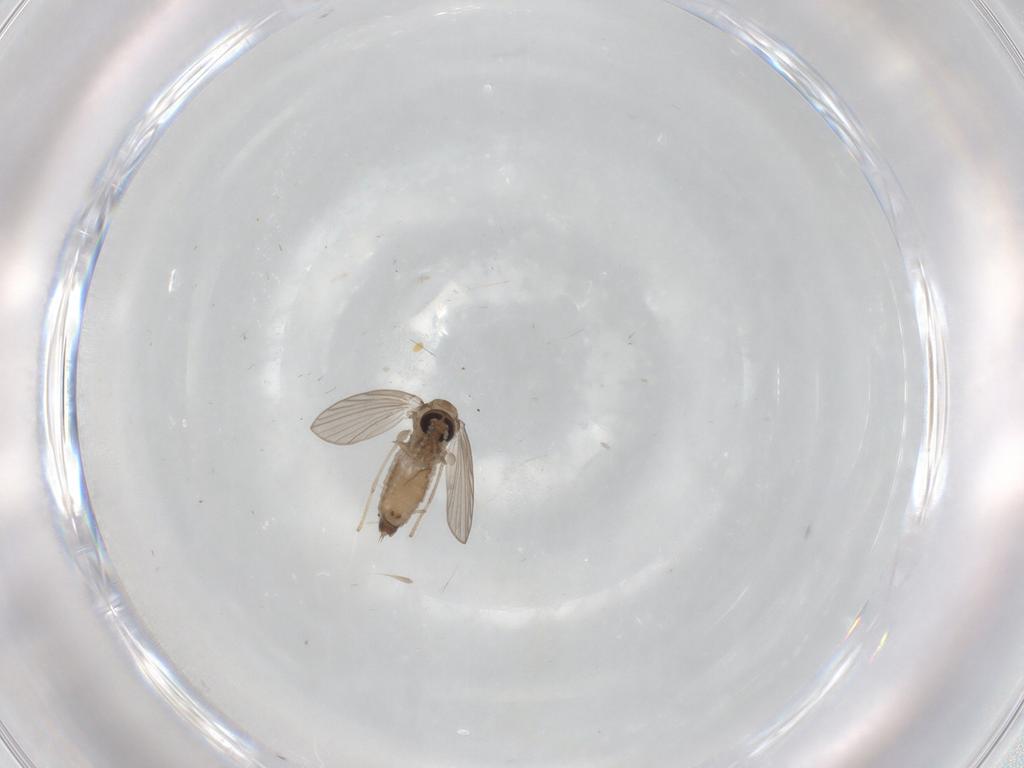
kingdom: Animalia
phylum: Arthropoda
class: Insecta
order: Diptera
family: Psychodidae
